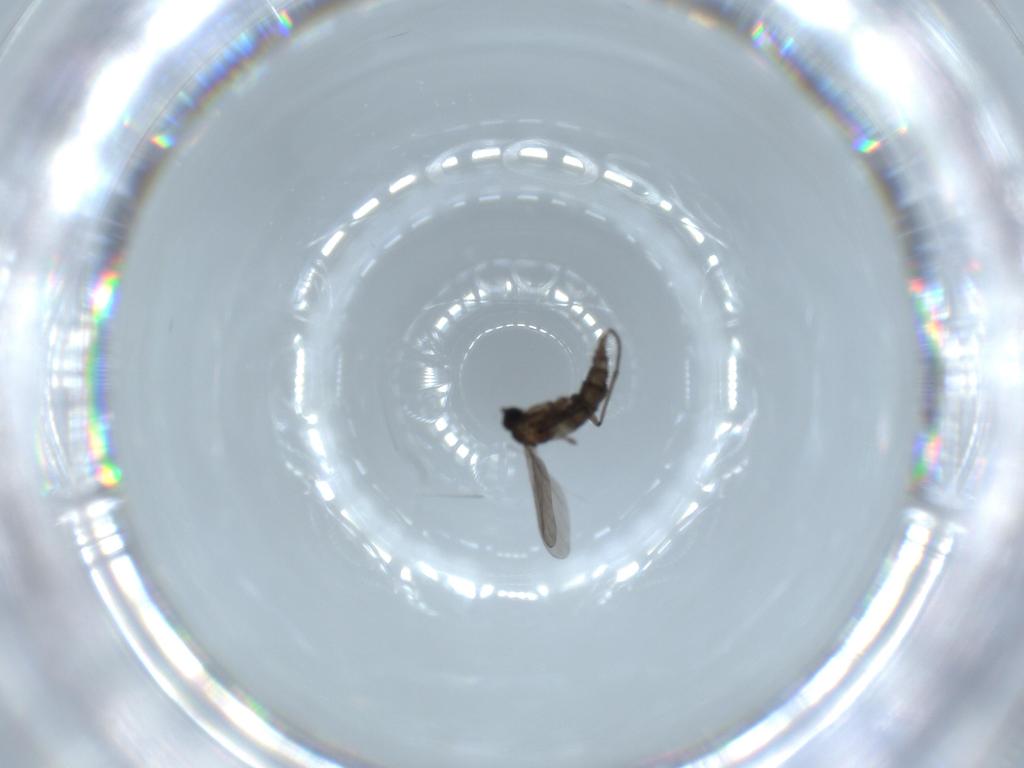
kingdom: Animalia
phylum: Arthropoda
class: Insecta
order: Diptera
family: Sciaridae
